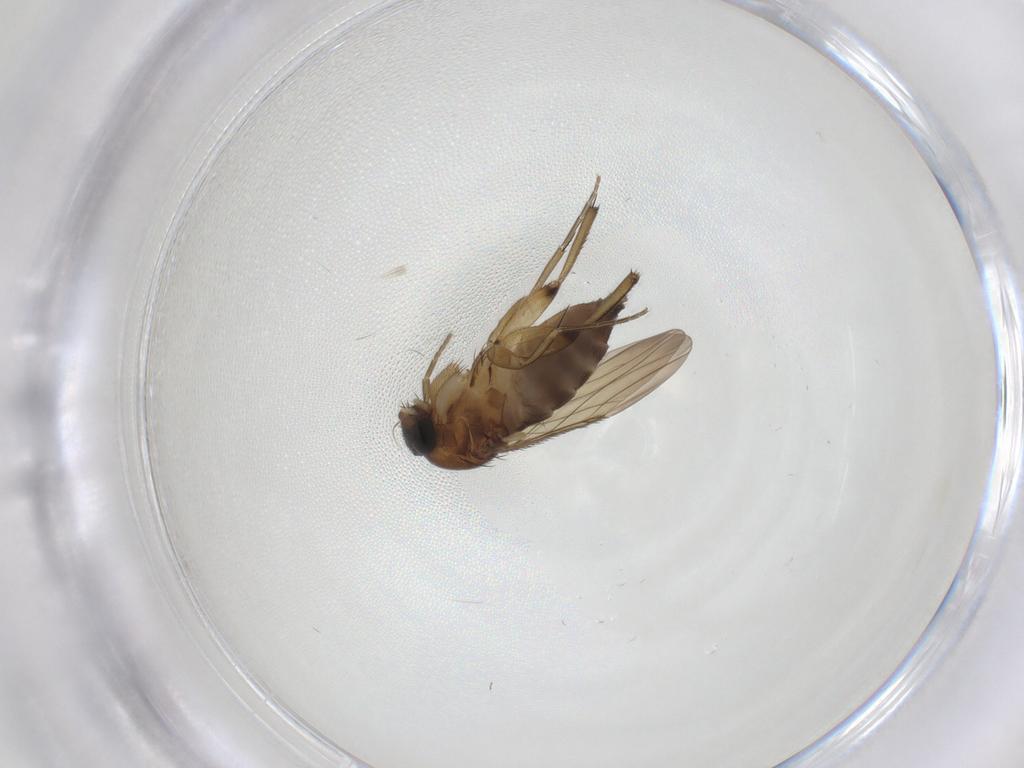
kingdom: Animalia
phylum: Arthropoda
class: Insecta
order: Diptera
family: Phoridae
